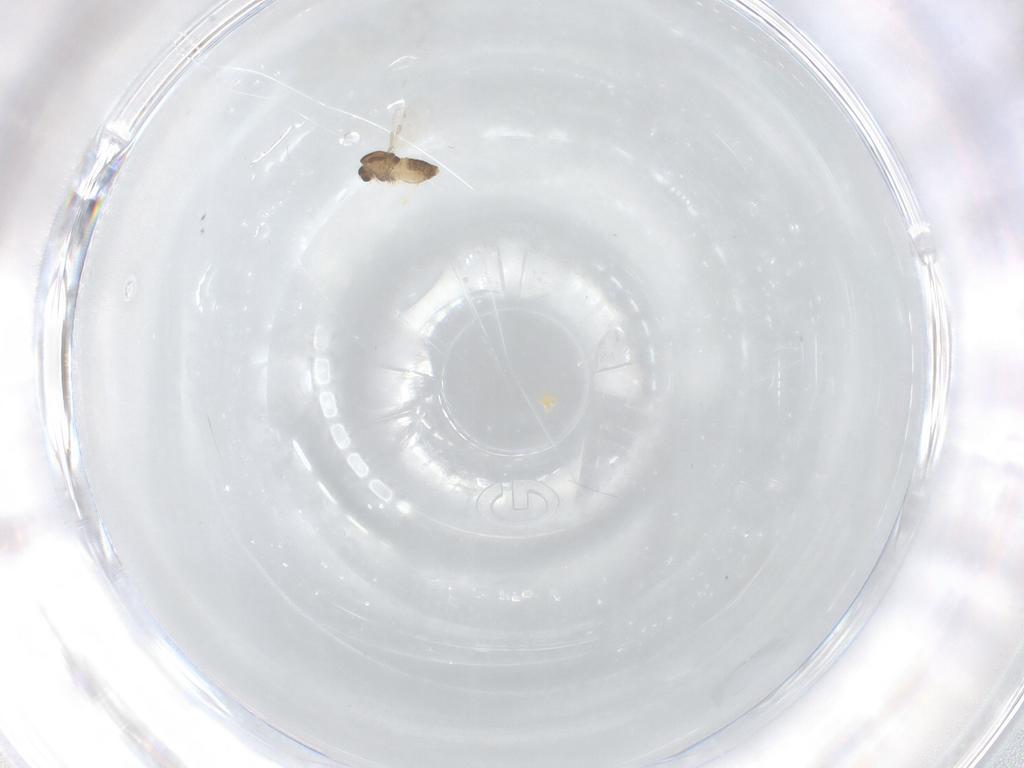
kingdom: Animalia
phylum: Arthropoda
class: Insecta
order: Diptera
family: Chironomidae
